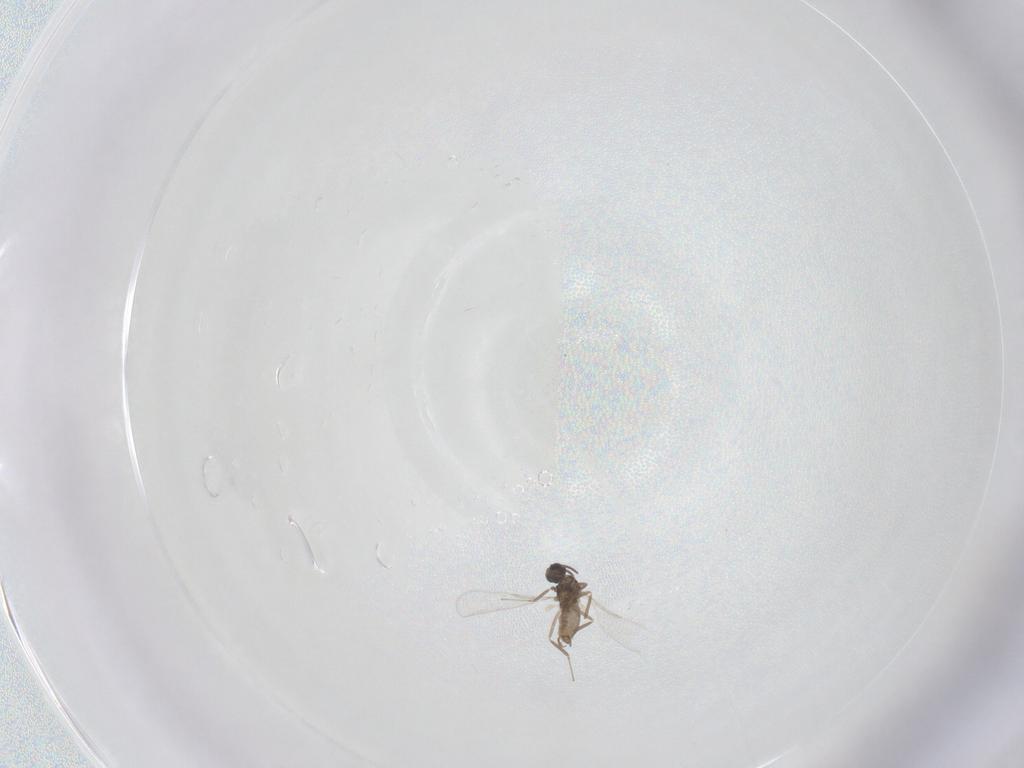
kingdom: Animalia
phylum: Arthropoda
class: Insecta
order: Diptera
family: Cecidomyiidae
